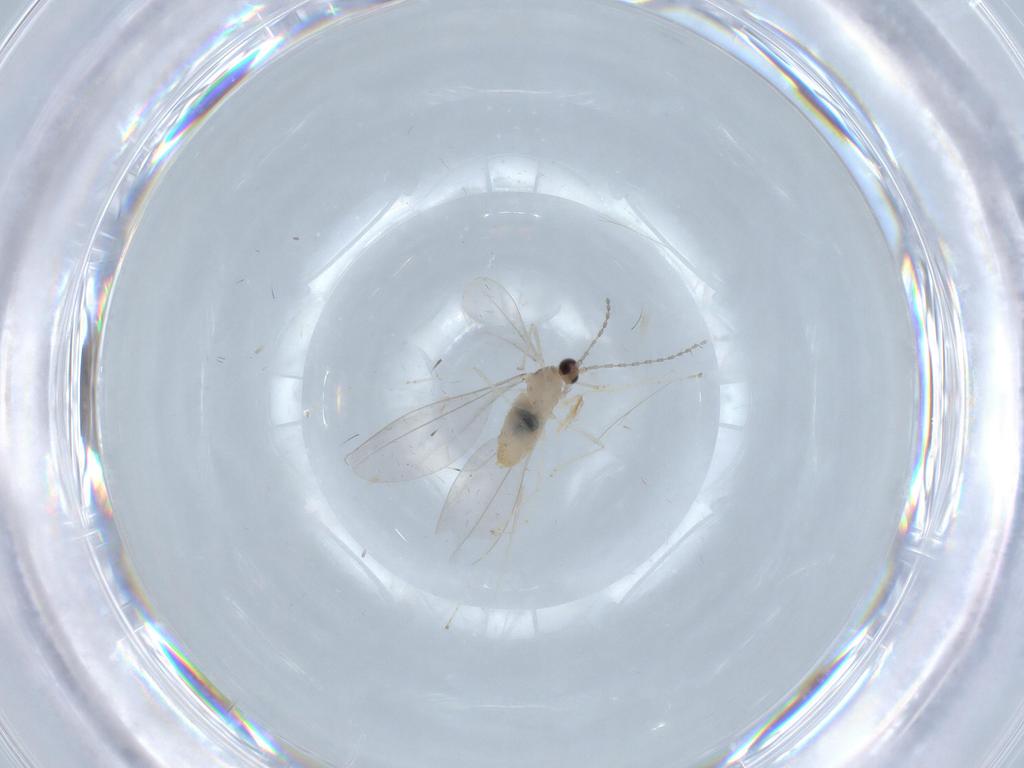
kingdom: Animalia
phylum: Arthropoda
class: Insecta
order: Diptera
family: Cecidomyiidae
